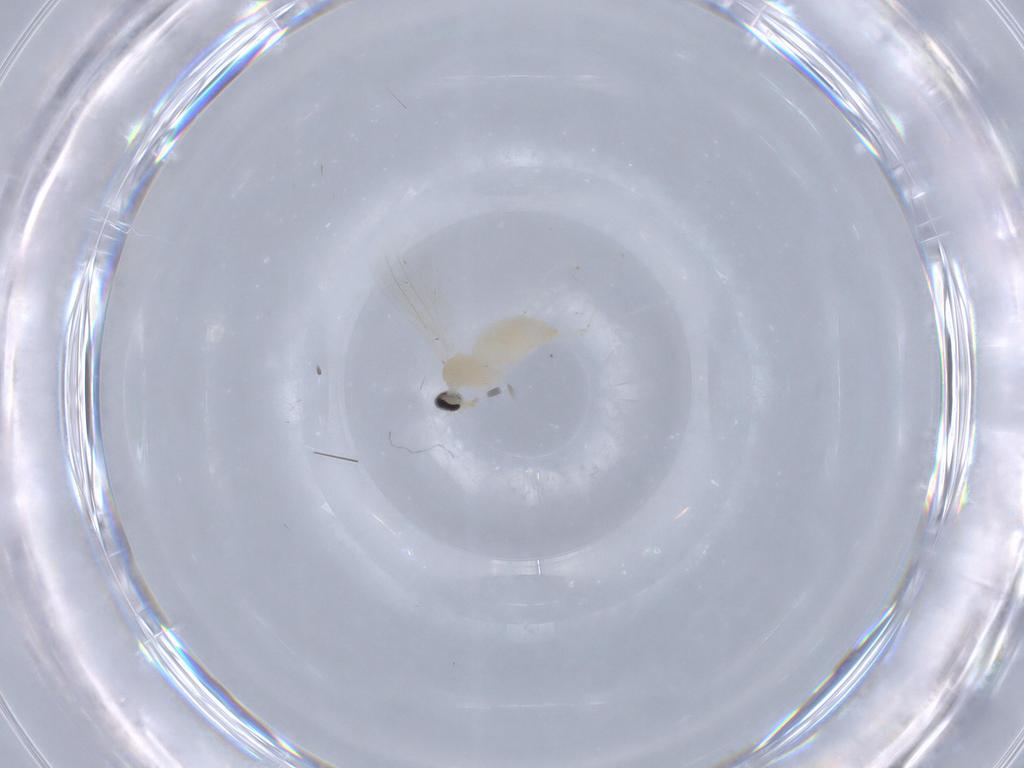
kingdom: Animalia
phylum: Arthropoda
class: Insecta
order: Diptera
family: Cecidomyiidae
